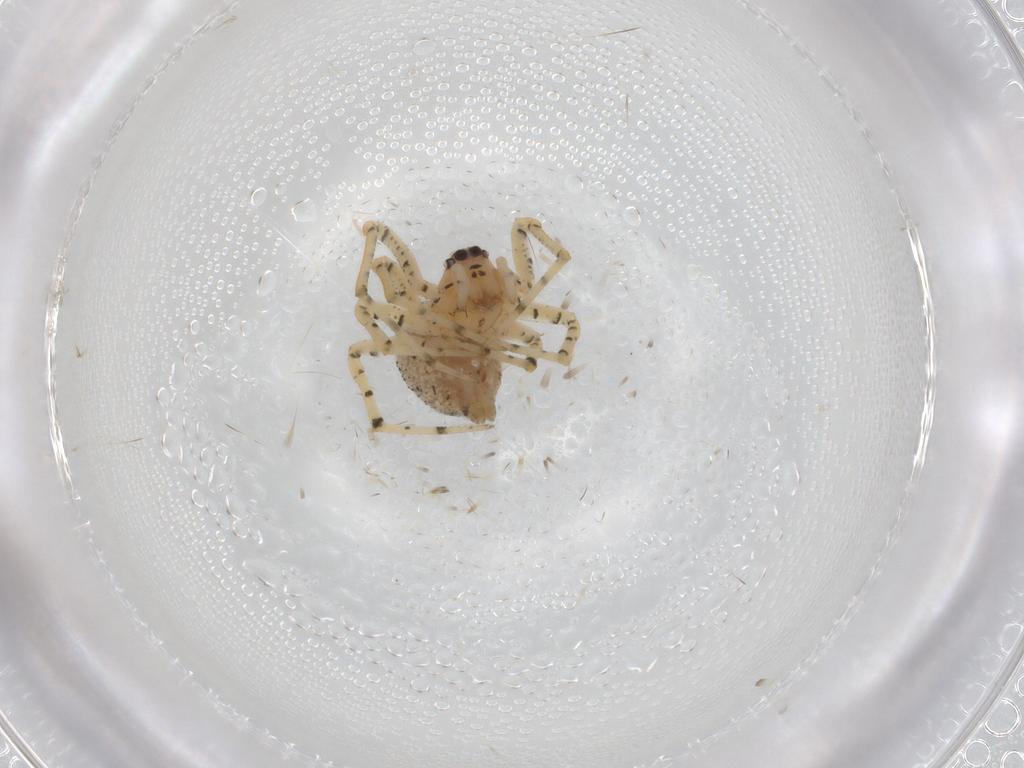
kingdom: Animalia
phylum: Arthropoda
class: Arachnida
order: Araneae
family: Theridiidae
